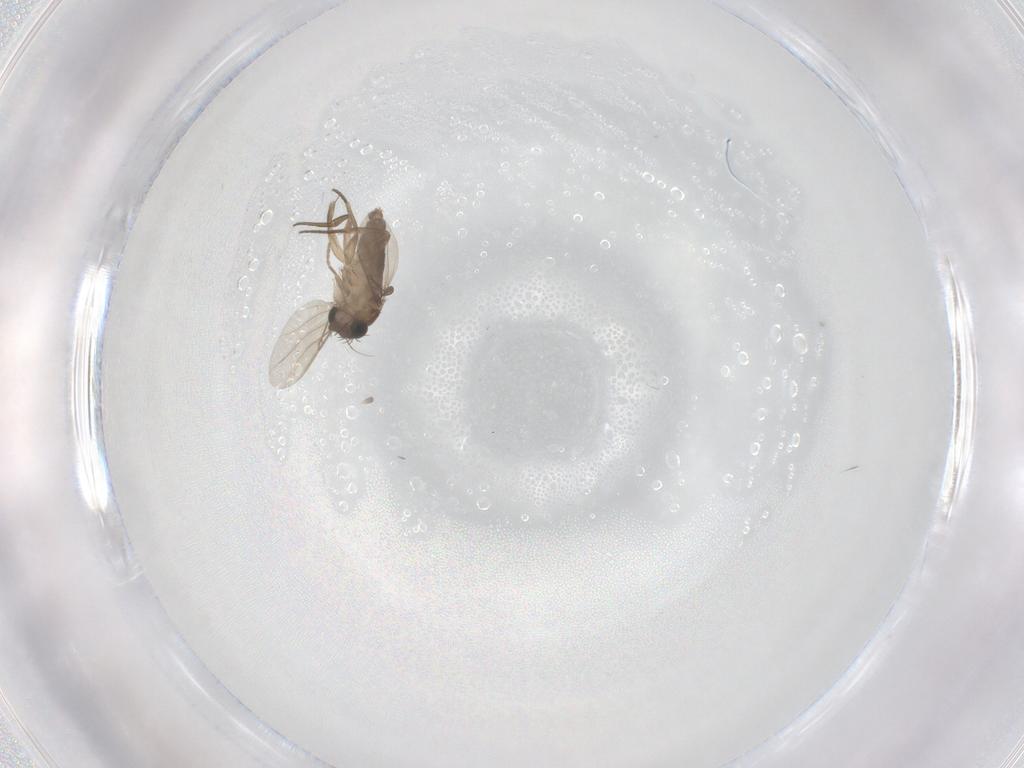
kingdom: Animalia
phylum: Arthropoda
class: Insecta
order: Diptera
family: Phoridae
